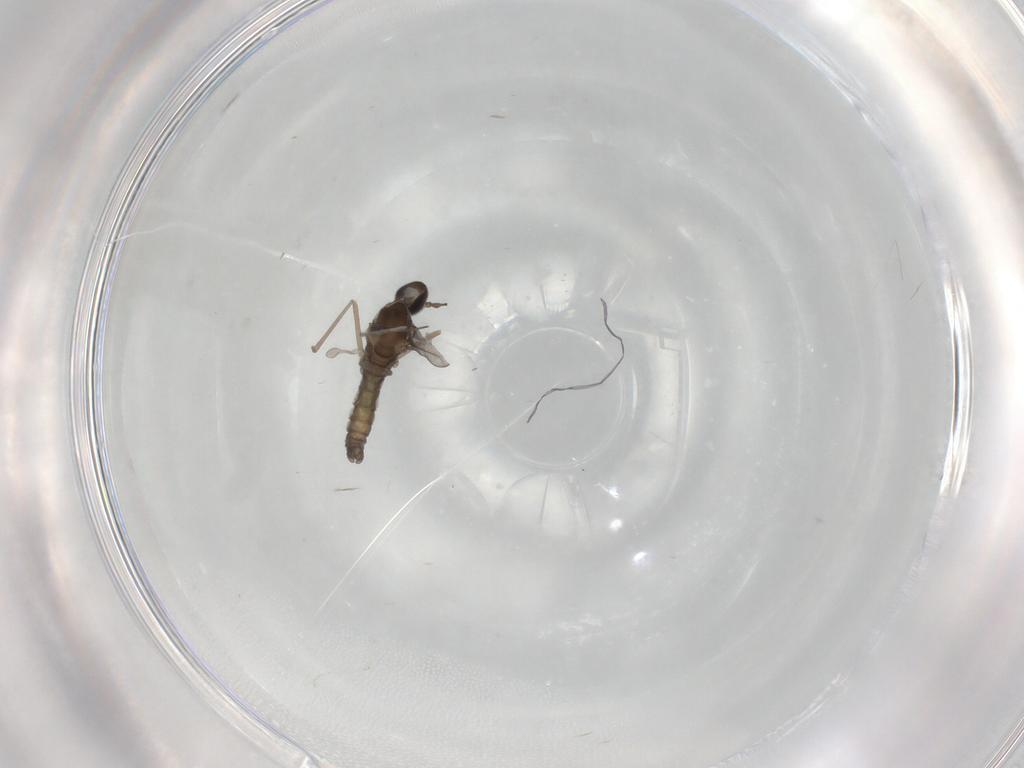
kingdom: Animalia
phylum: Arthropoda
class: Insecta
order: Diptera
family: Cecidomyiidae
